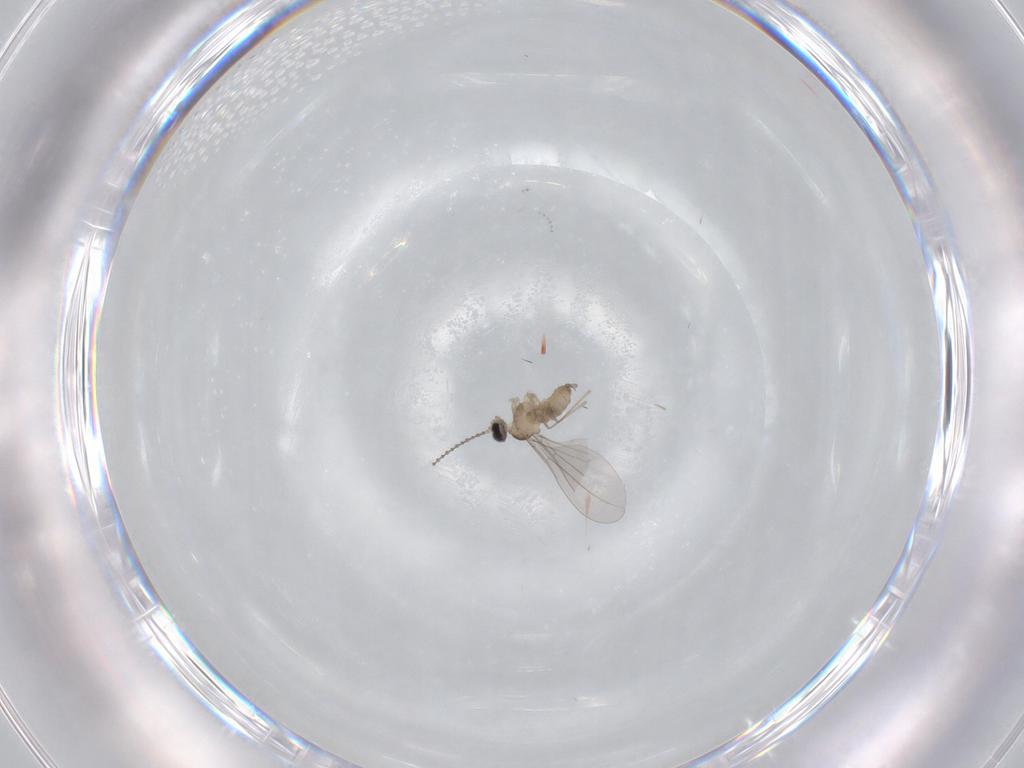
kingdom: Animalia
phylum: Arthropoda
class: Insecta
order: Diptera
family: Cecidomyiidae
